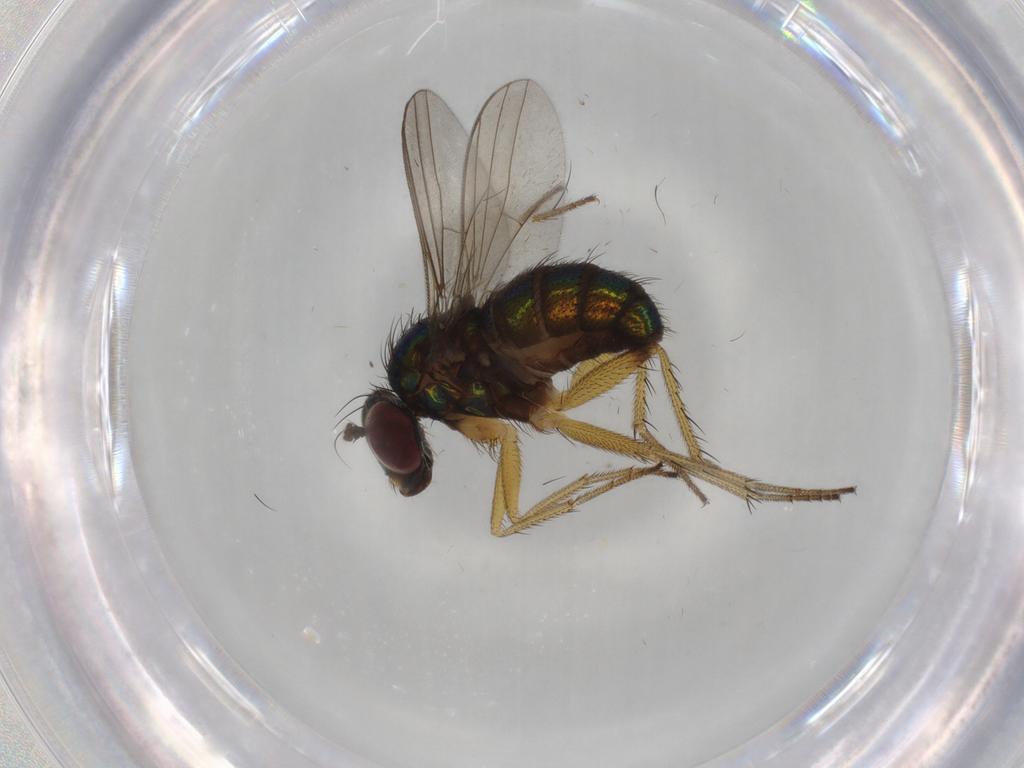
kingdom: Animalia
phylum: Arthropoda
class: Insecta
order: Diptera
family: Dolichopodidae
